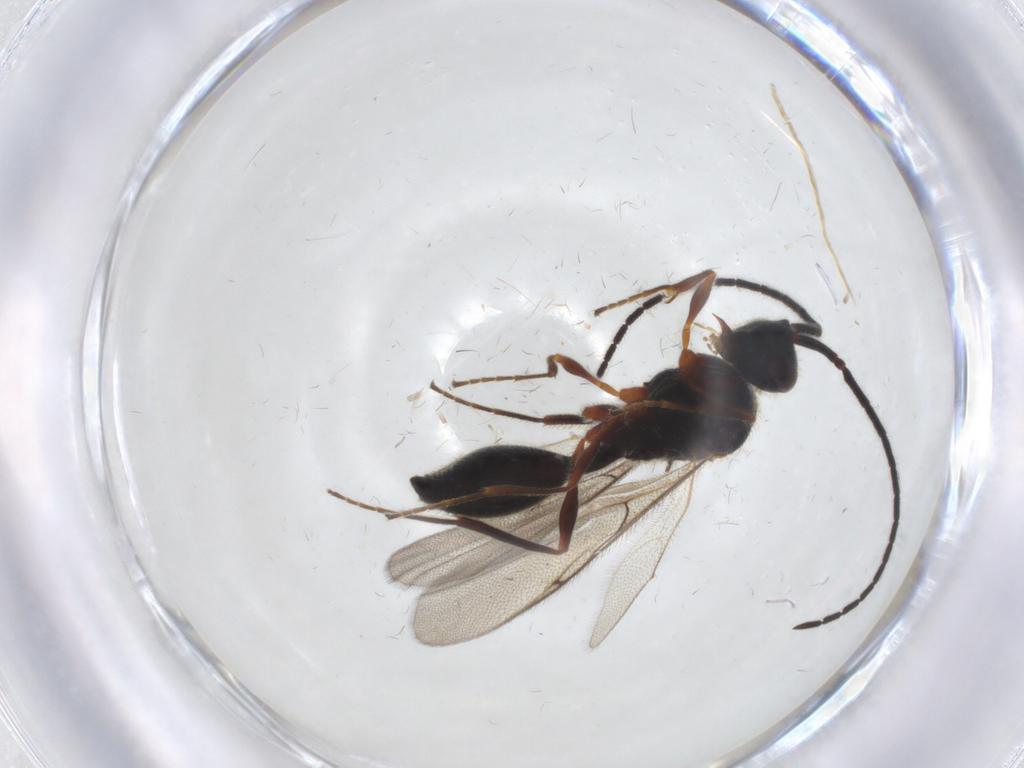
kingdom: Animalia
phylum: Arthropoda
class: Insecta
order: Hymenoptera
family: Diapriidae
